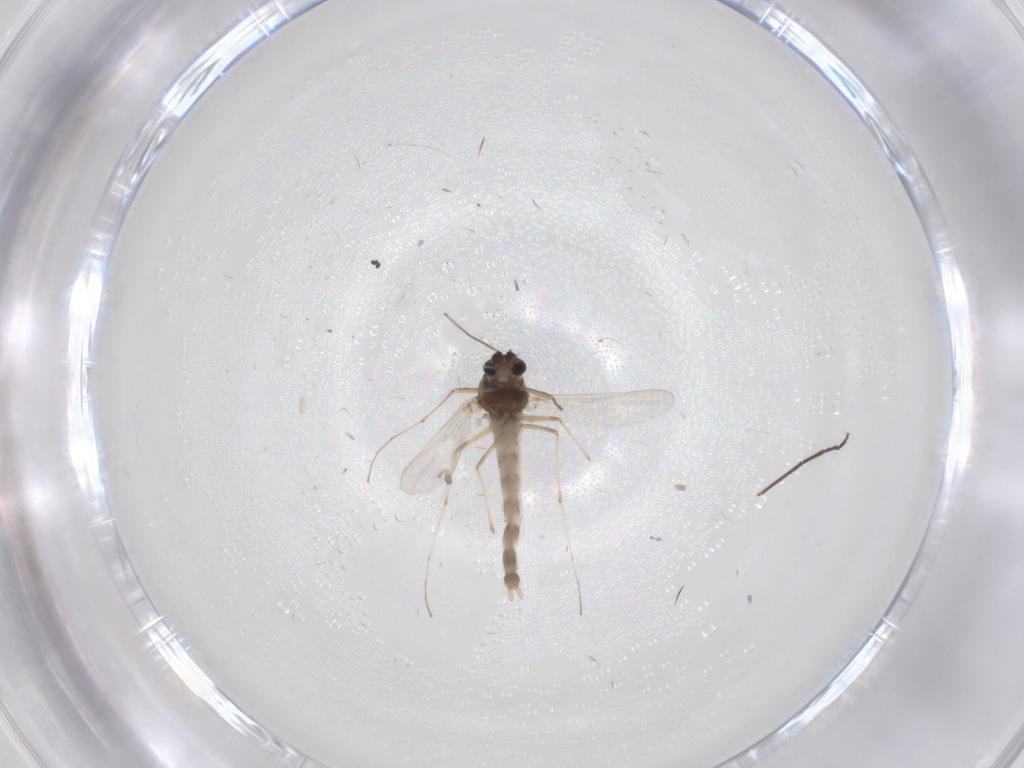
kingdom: Animalia
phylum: Arthropoda
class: Insecta
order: Diptera
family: Chironomidae
